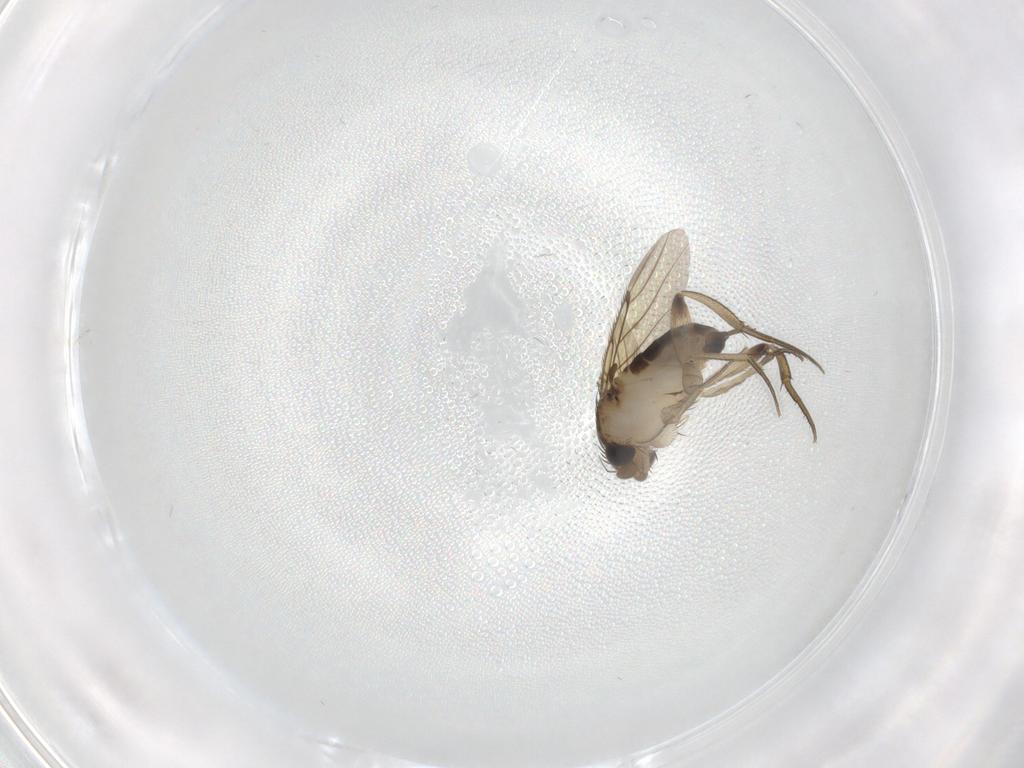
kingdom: Animalia
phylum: Arthropoda
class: Insecta
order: Diptera
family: Phoridae
